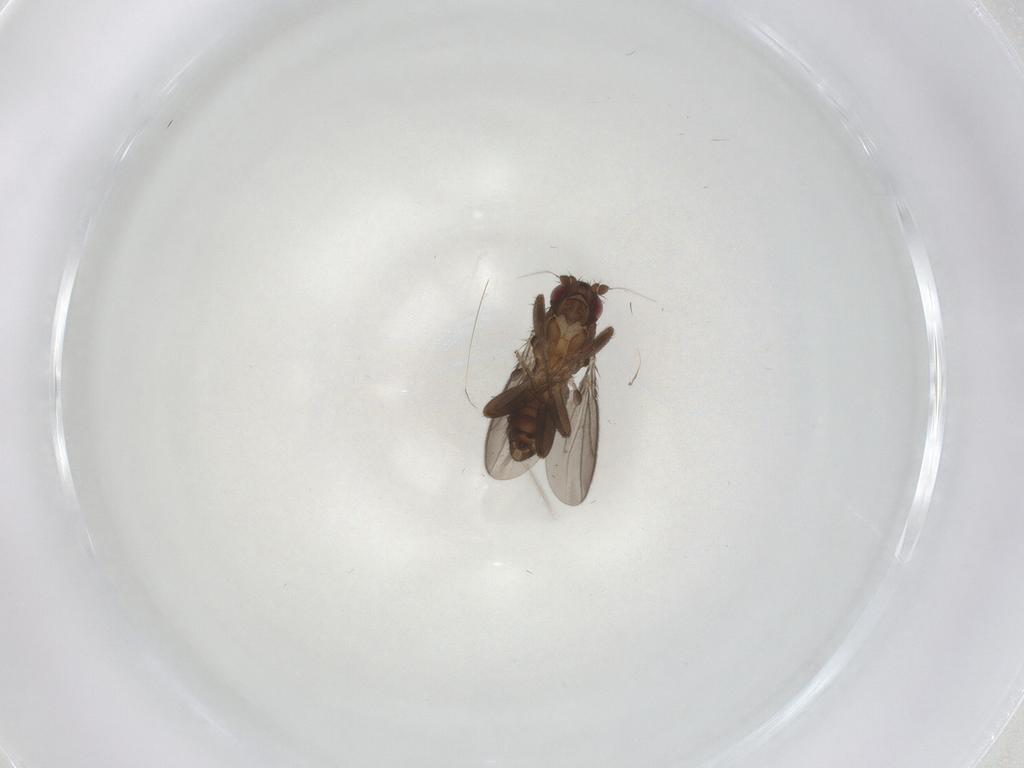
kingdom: Animalia
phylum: Arthropoda
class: Insecta
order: Diptera
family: Sphaeroceridae
